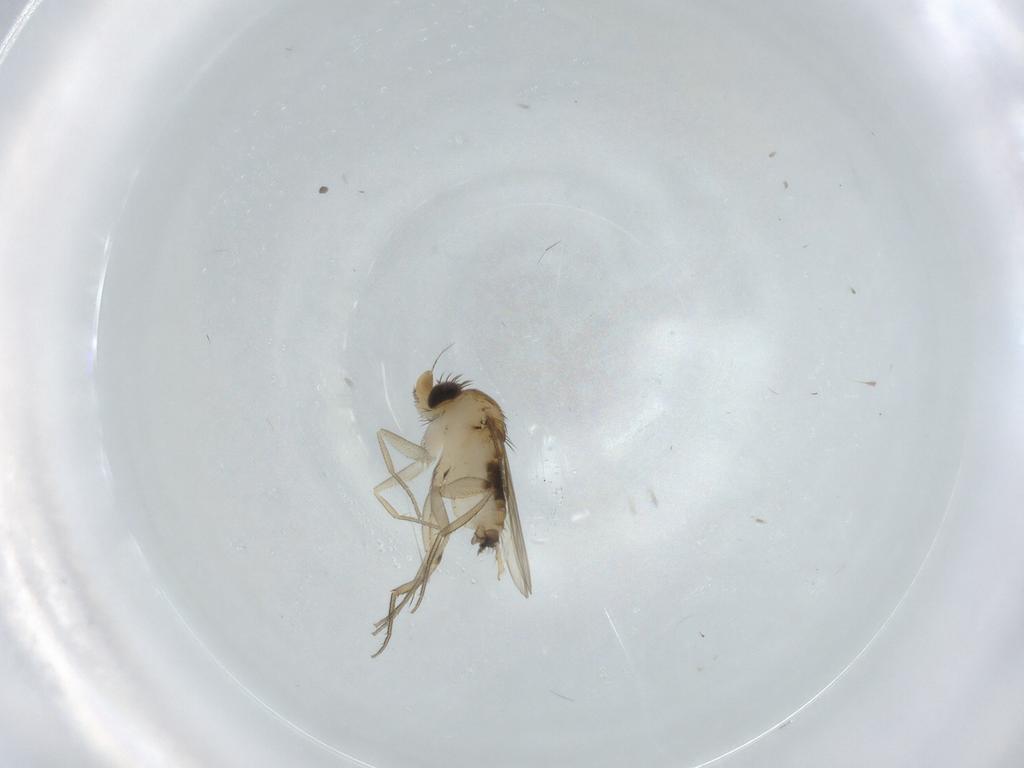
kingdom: Animalia
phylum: Arthropoda
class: Insecta
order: Diptera
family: Phoridae
